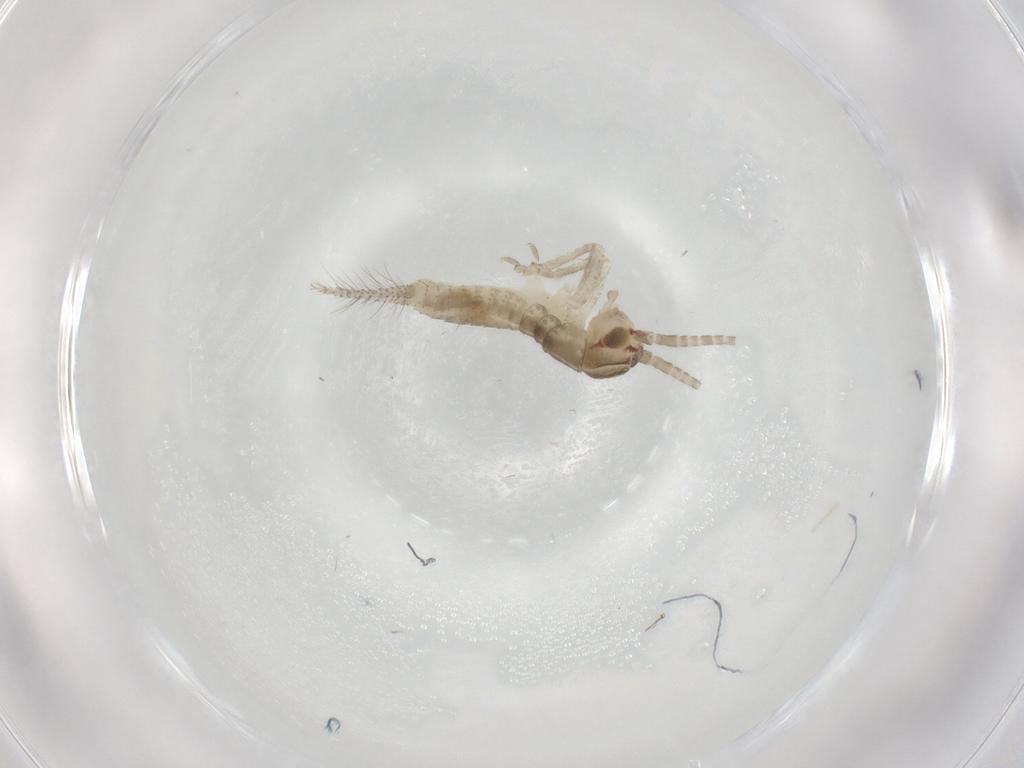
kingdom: Animalia
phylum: Arthropoda
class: Insecta
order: Orthoptera
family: Gryllidae
